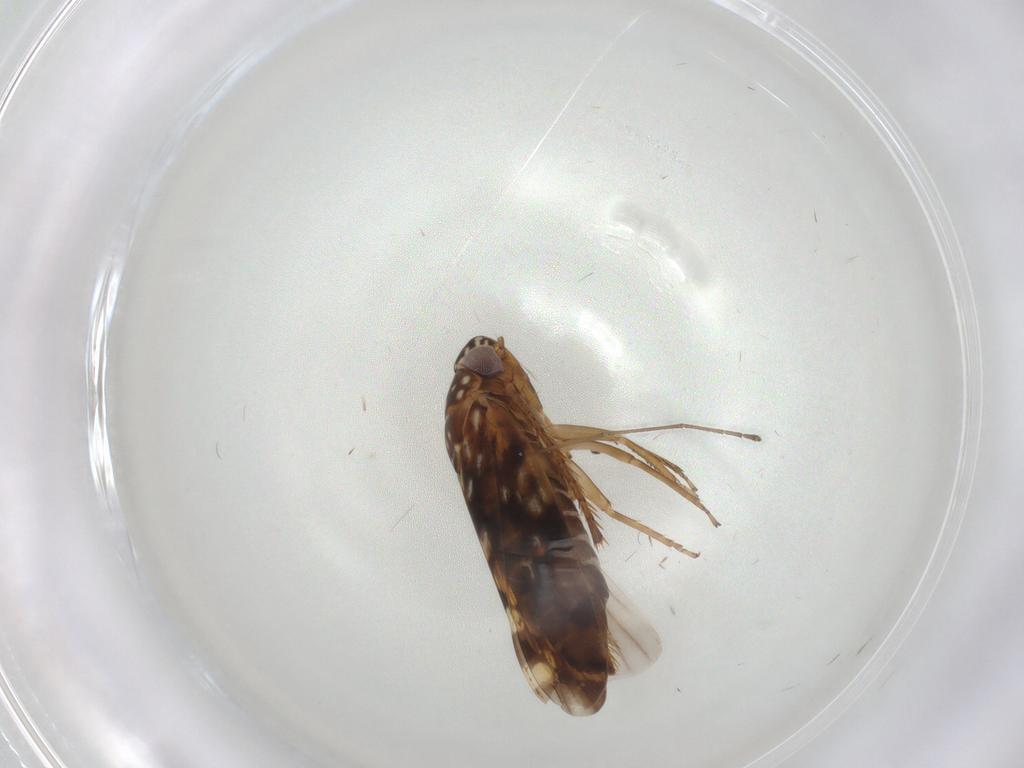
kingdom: Animalia
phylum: Arthropoda
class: Insecta
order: Hemiptera
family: Cicadellidae
